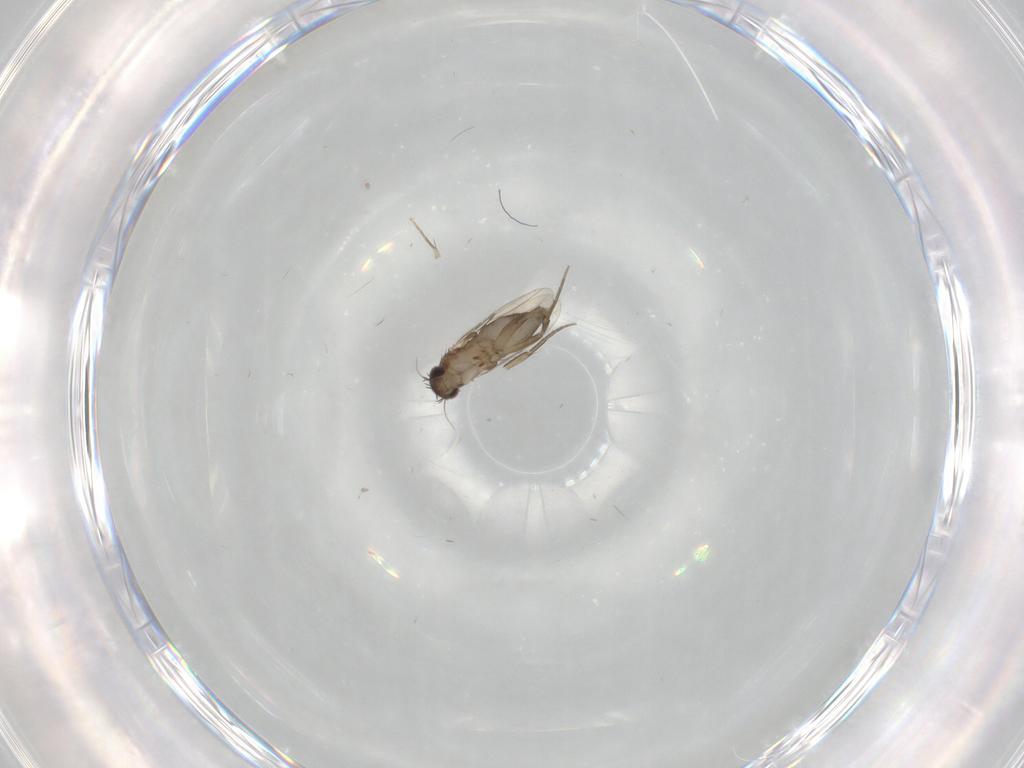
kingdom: Animalia
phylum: Arthropoda
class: Insecta
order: Diptera
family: Phoridae
